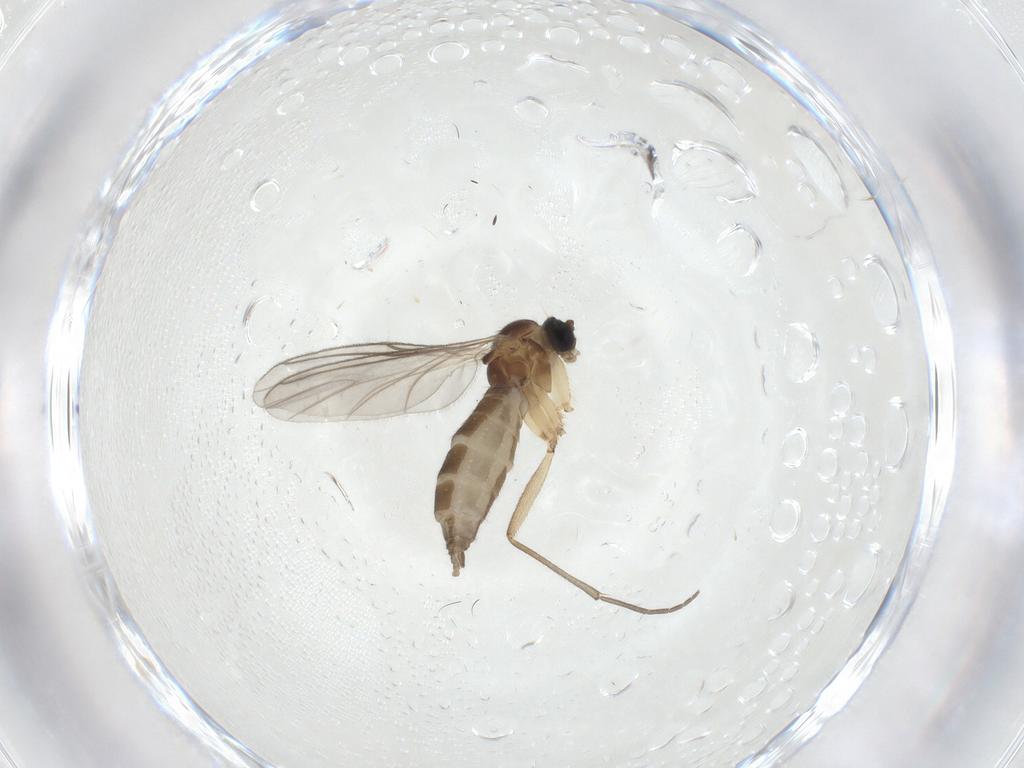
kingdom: Animalia
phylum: Arthropoda
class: Insecta
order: Diptera
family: Sciaridae
